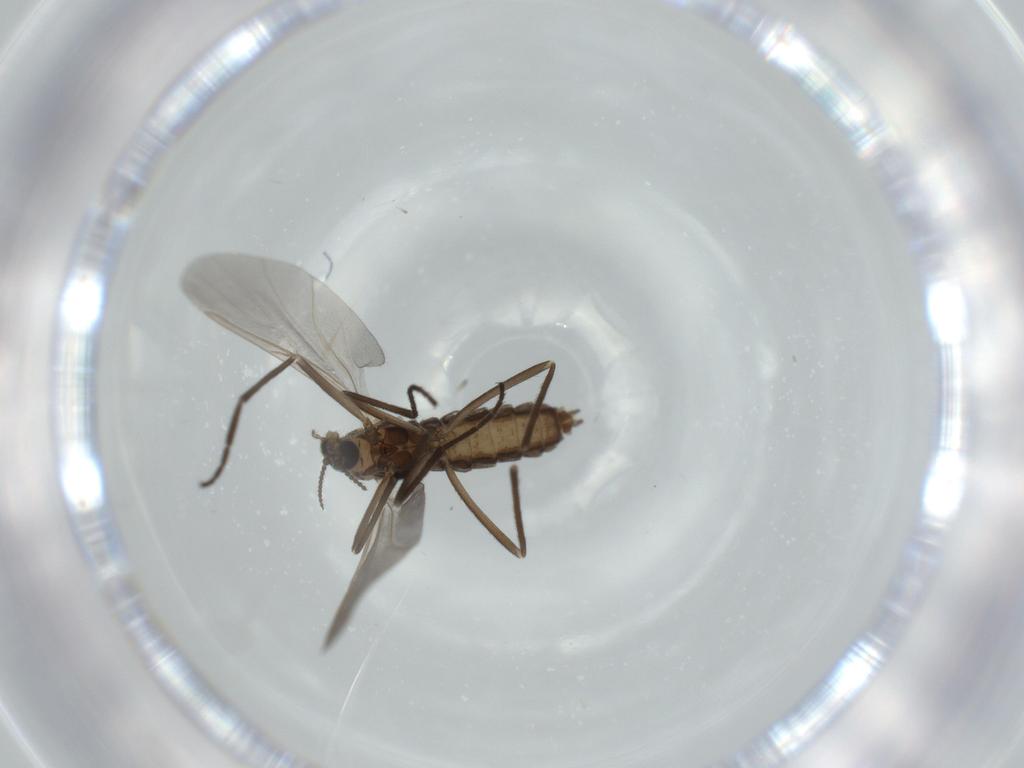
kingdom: Animalia
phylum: Arthropoda
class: Insecta
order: Diptera
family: Cecidomyiidae
